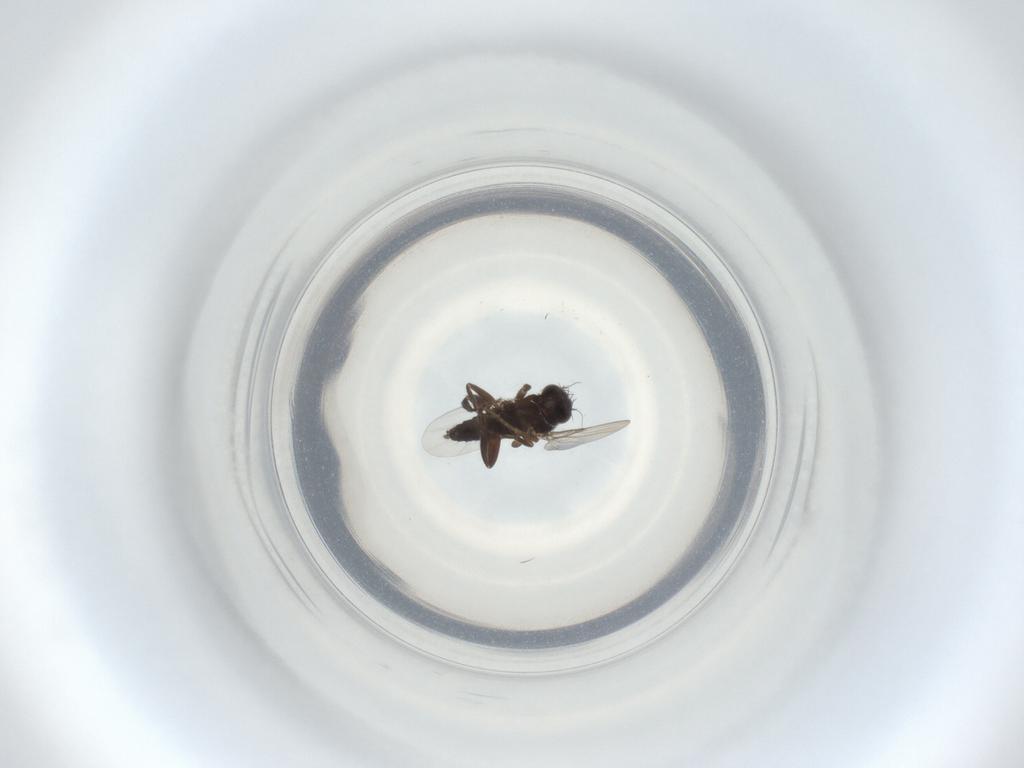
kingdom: Animalia
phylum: Arthropoda
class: Insecta
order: Diptera
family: Phoridae
